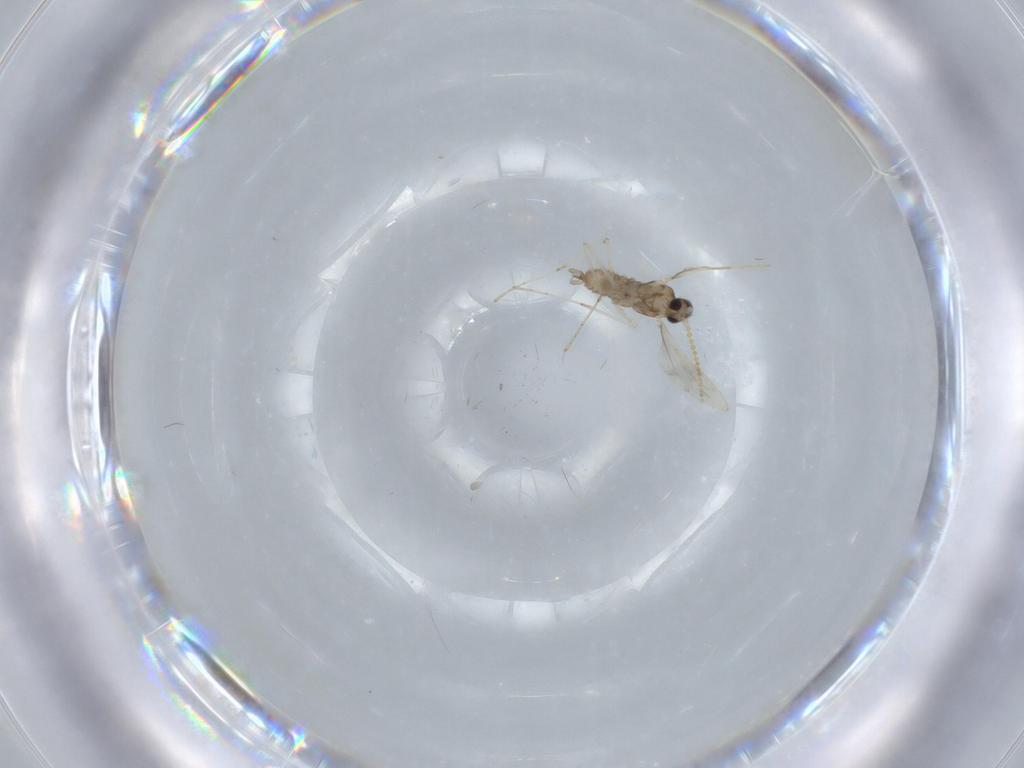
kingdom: Animalia
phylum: Arthropoda
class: Insecta
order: Diptera
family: Cecidomyiidae
